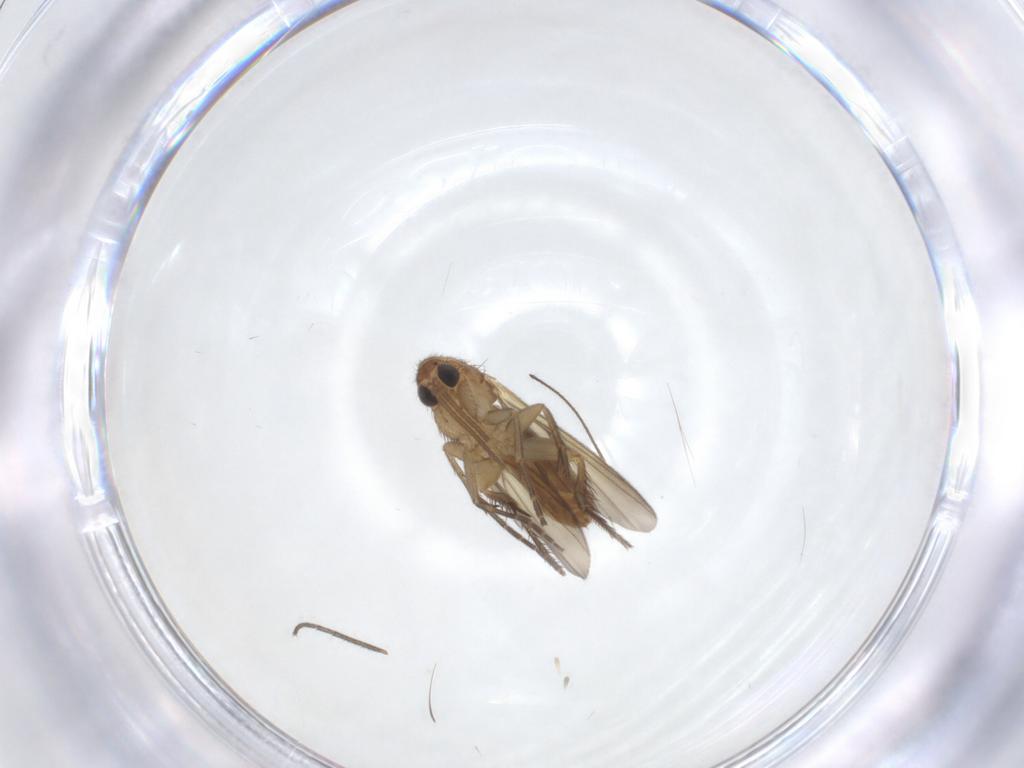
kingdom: Animalia
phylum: Arthropoda
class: Insecta
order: Diptera
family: Mycetophilidae
